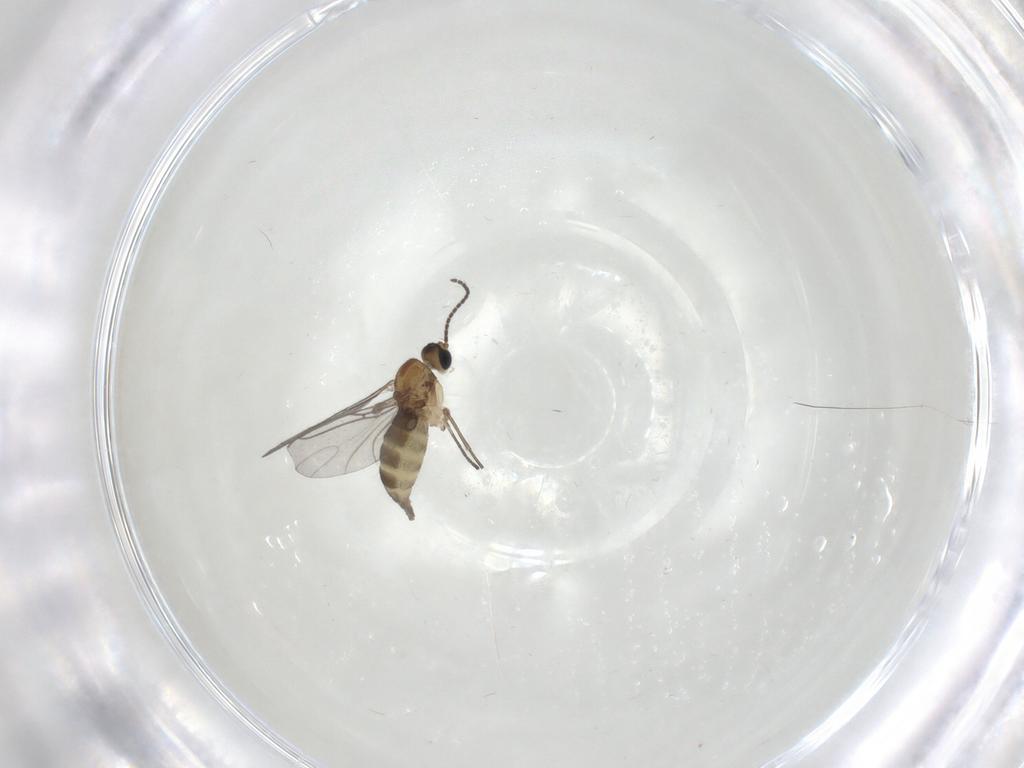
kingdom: Animalia
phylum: Arthropoda
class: Insecta
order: Diptera
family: Sciaridae
